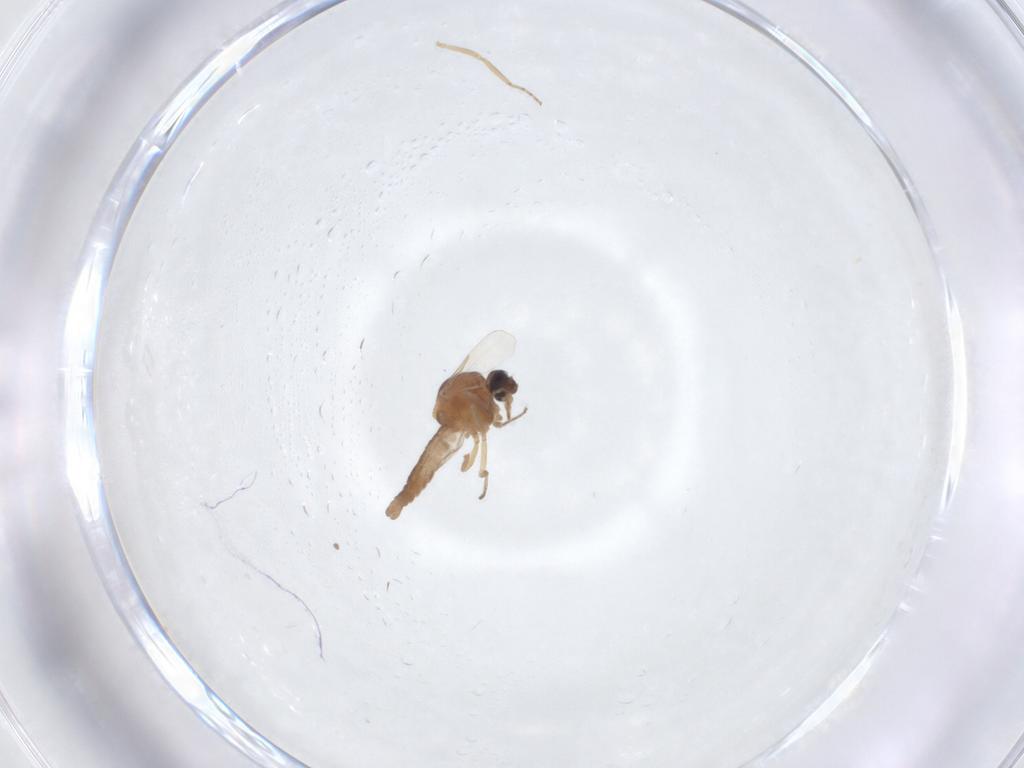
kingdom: Animalia
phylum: Arthropoda
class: Insecta
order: Diptera
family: Ceratopogonidae
